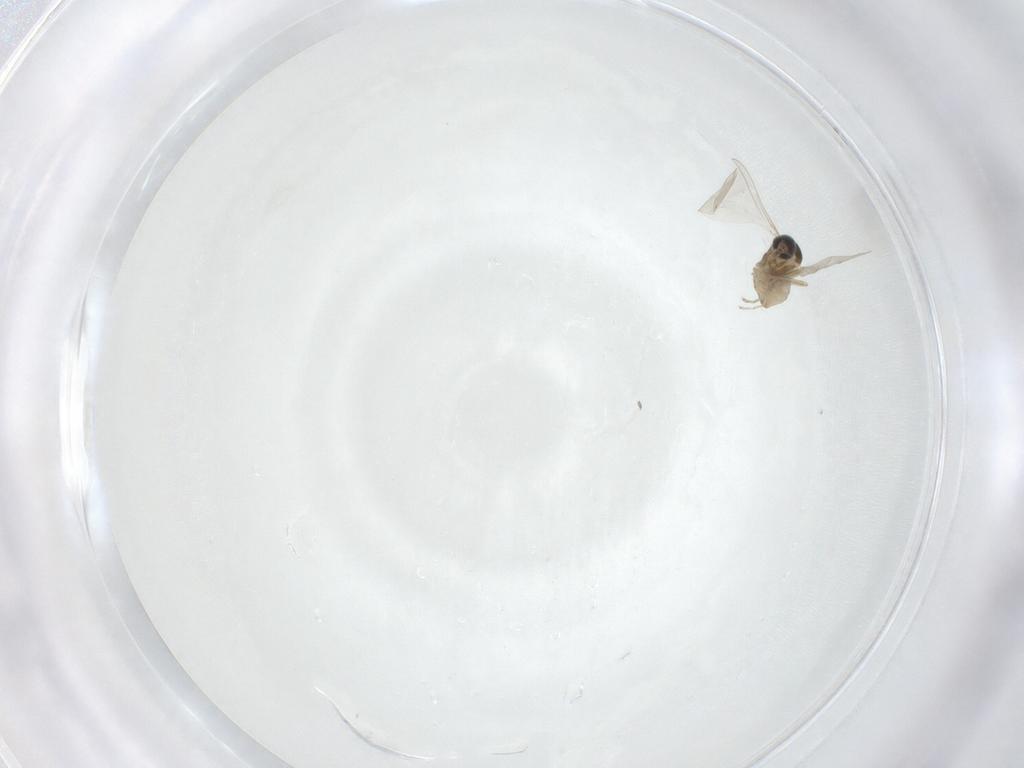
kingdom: Animalia
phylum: Arthropoda
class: Insecta
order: Diptera
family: Cecidomyiidae
